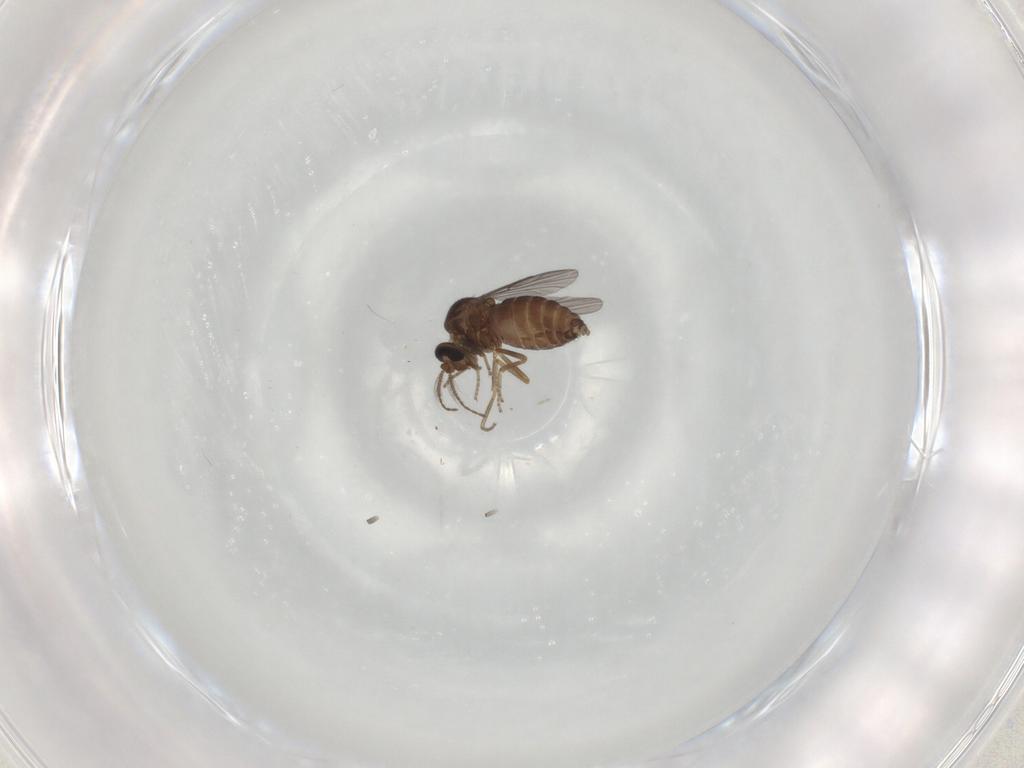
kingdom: Animalia
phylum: Arthropoda
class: Insecta
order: Diptera
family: Ceratopogonidae
